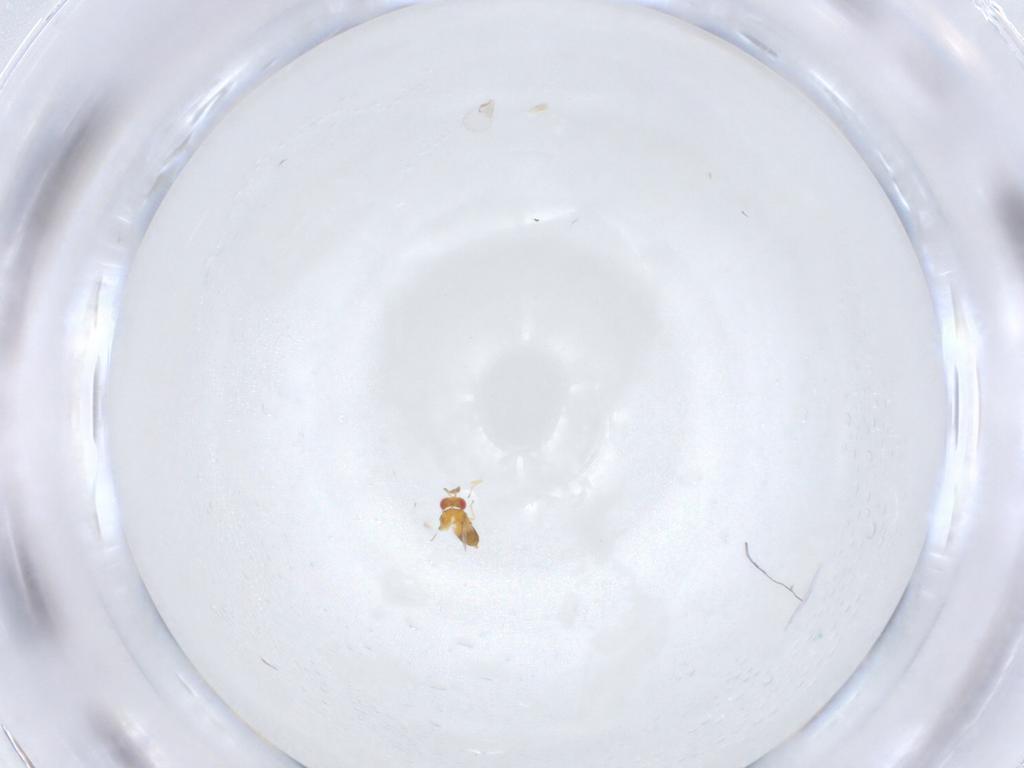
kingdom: Animalia
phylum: Arthropoda
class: Insecta
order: Hymenoptera
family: Trichogrammatidae
